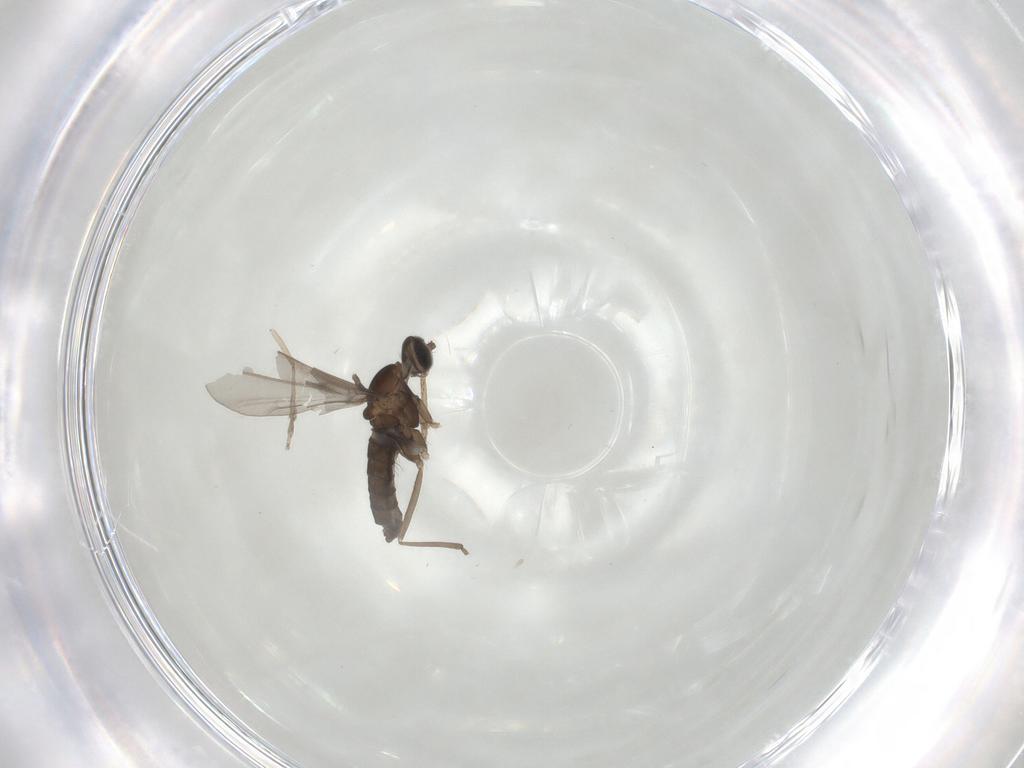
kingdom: Animalia
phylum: Arthropoda
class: Insecta
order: Diptera
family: Cecidomyiidae
